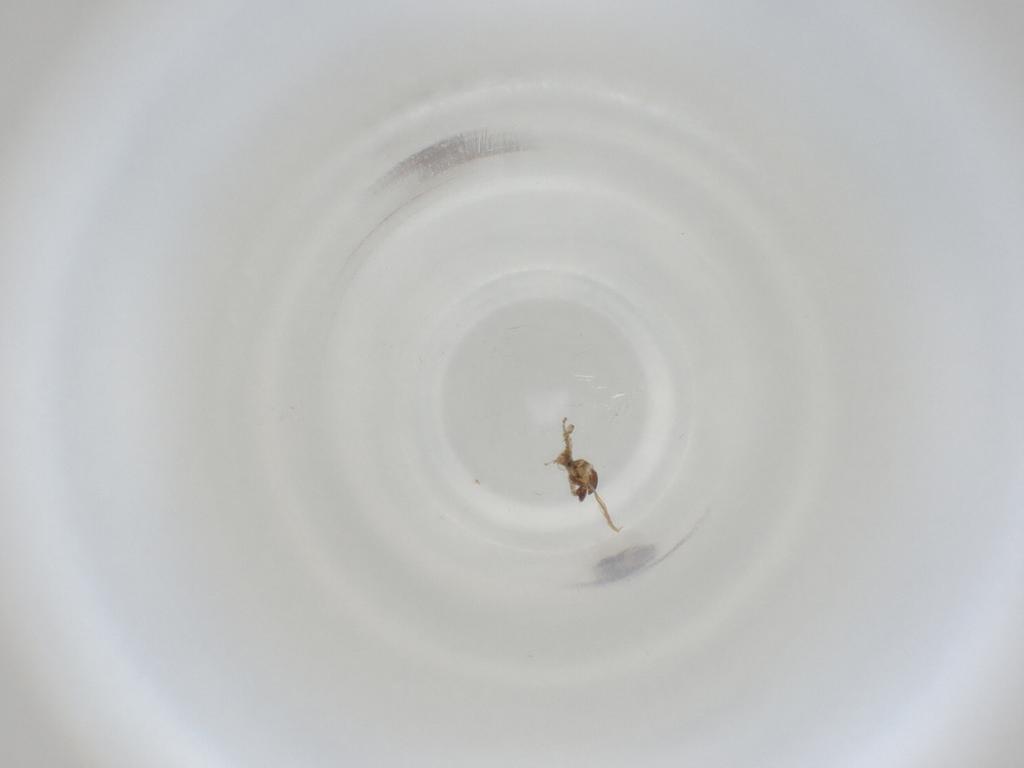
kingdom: Animalia
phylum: Arthropoda
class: Insecta
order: Diptera
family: Cecidomyiidae
